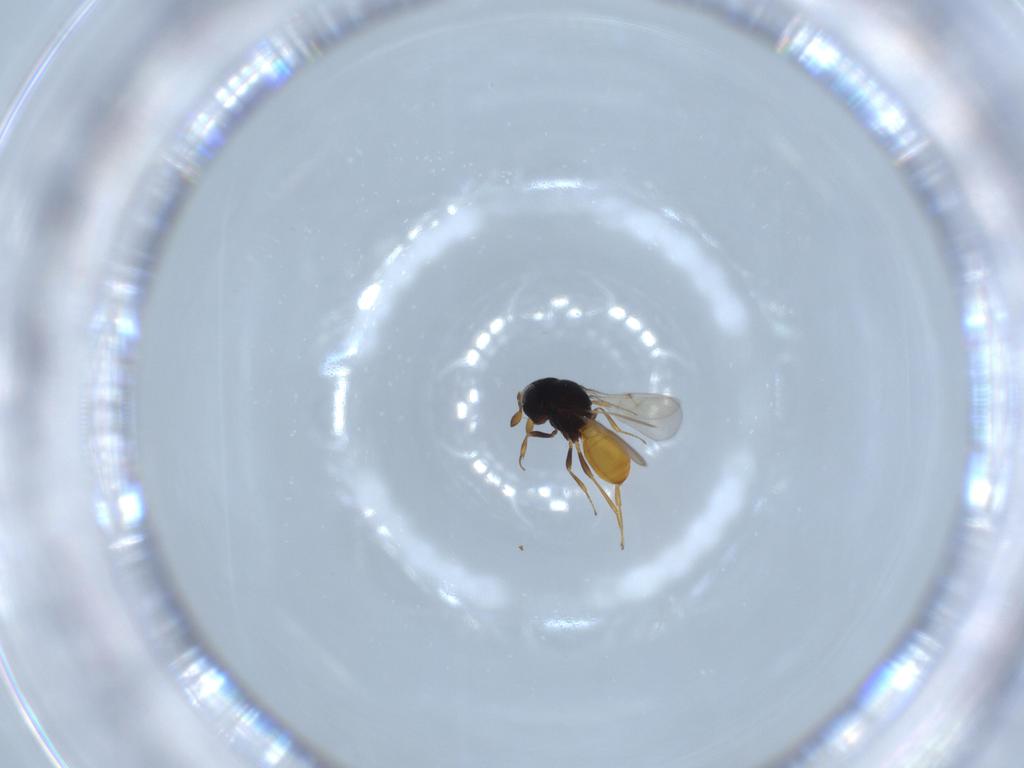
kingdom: Animalia
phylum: Arthropoda
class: Insecta
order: Hymenoptera
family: Scelionidae
